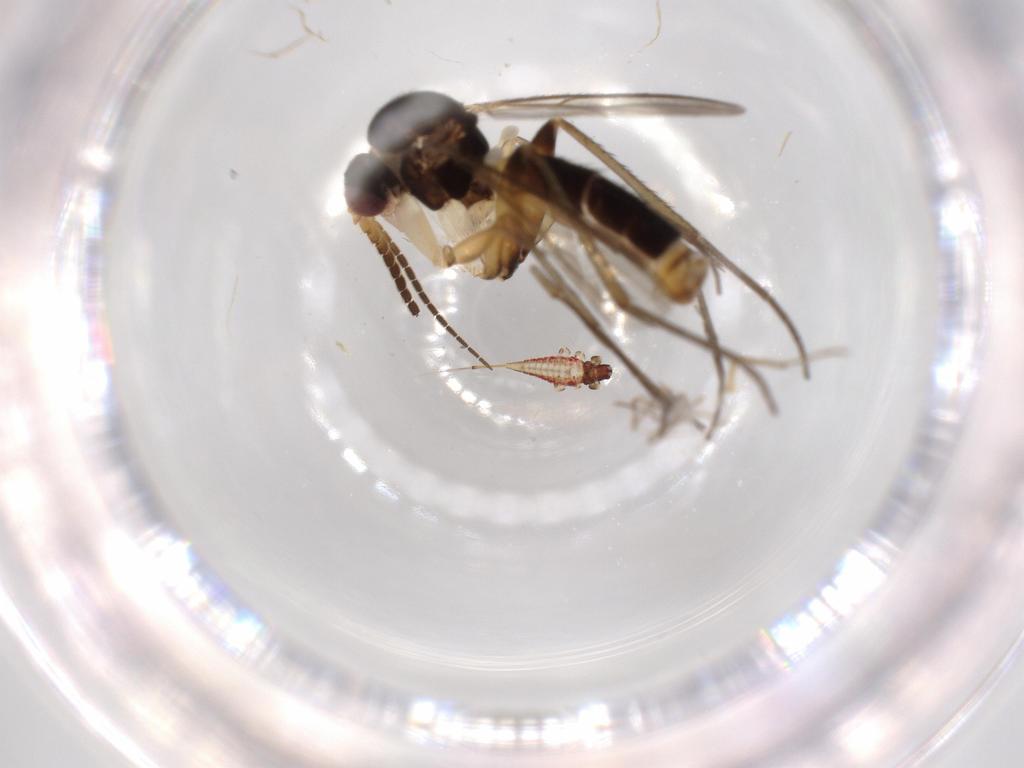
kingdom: Animalia
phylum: Arthropoda
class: Insecta
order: Diptera
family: Mycetophilidae
